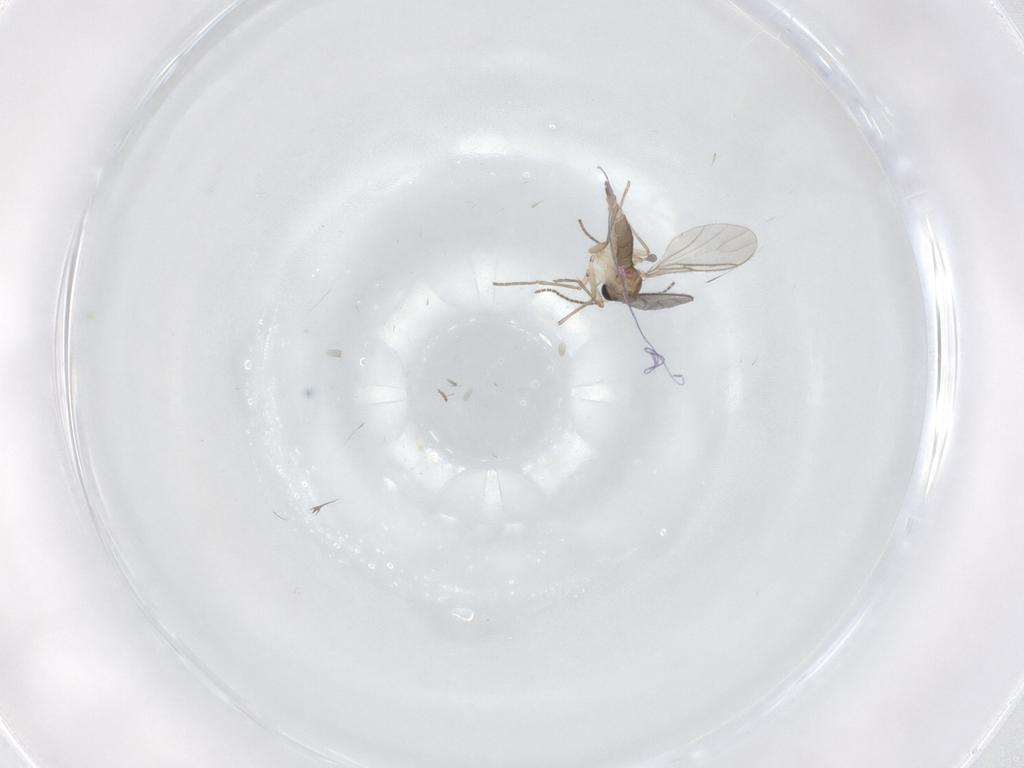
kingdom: Animalia
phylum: Arthropoda
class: Insecta
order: Diptera
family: Sciaridae
